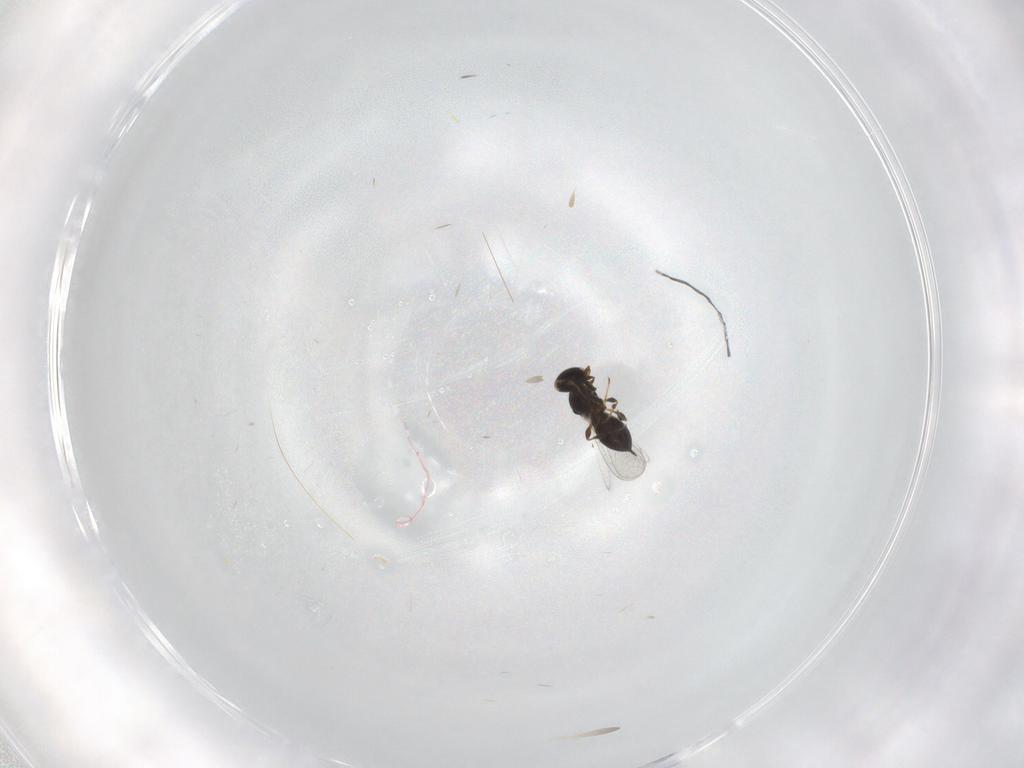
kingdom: Animalia
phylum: Arthropoda
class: Insecta
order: Hymenoptera
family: Platygastridae
